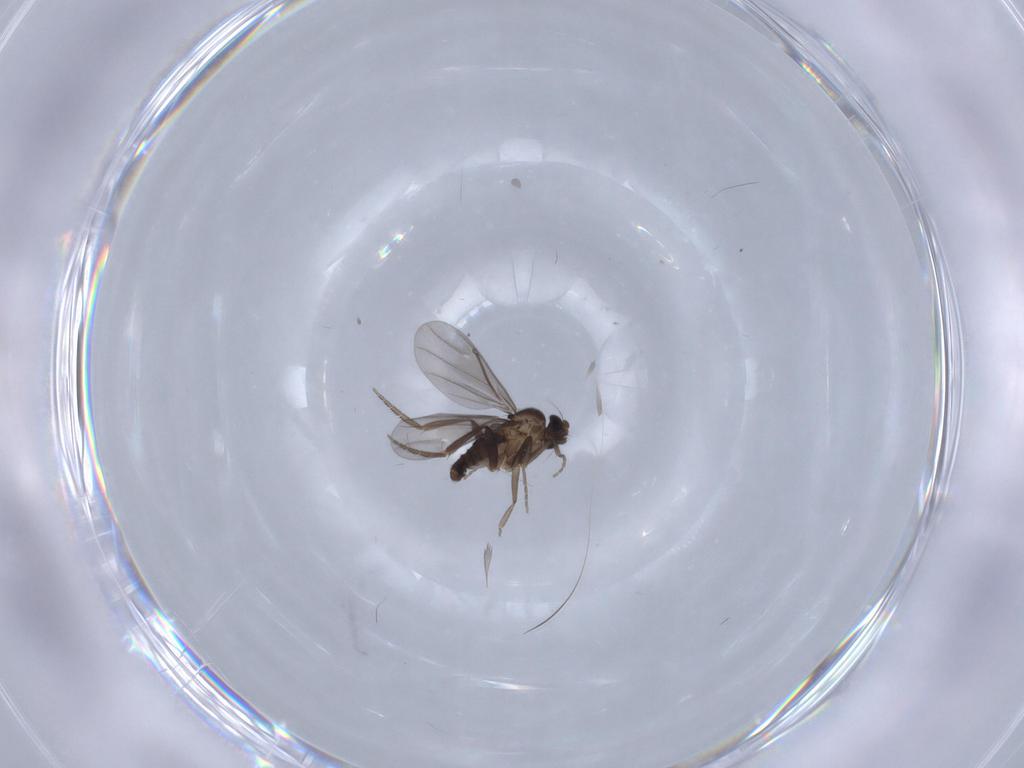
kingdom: Animalia
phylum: Arthropoda
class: Insecta
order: Diptera
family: Phoridae
